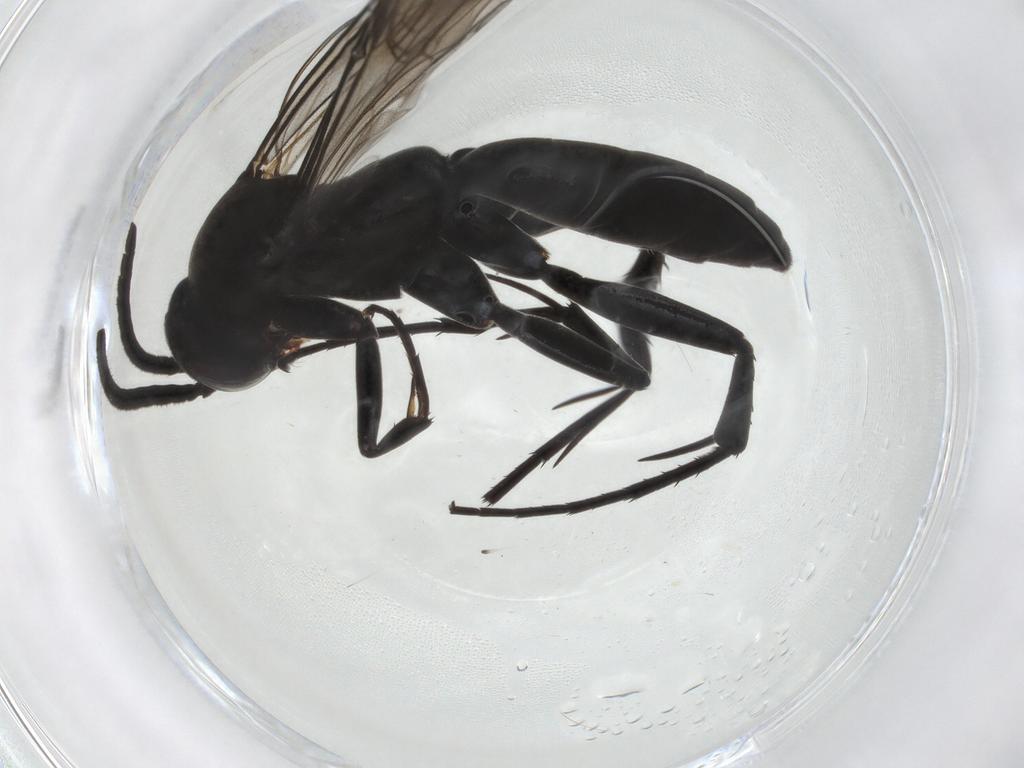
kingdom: Animalia
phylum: Arthropoda
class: Insecta
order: Hymenoptera
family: Pompilidae
